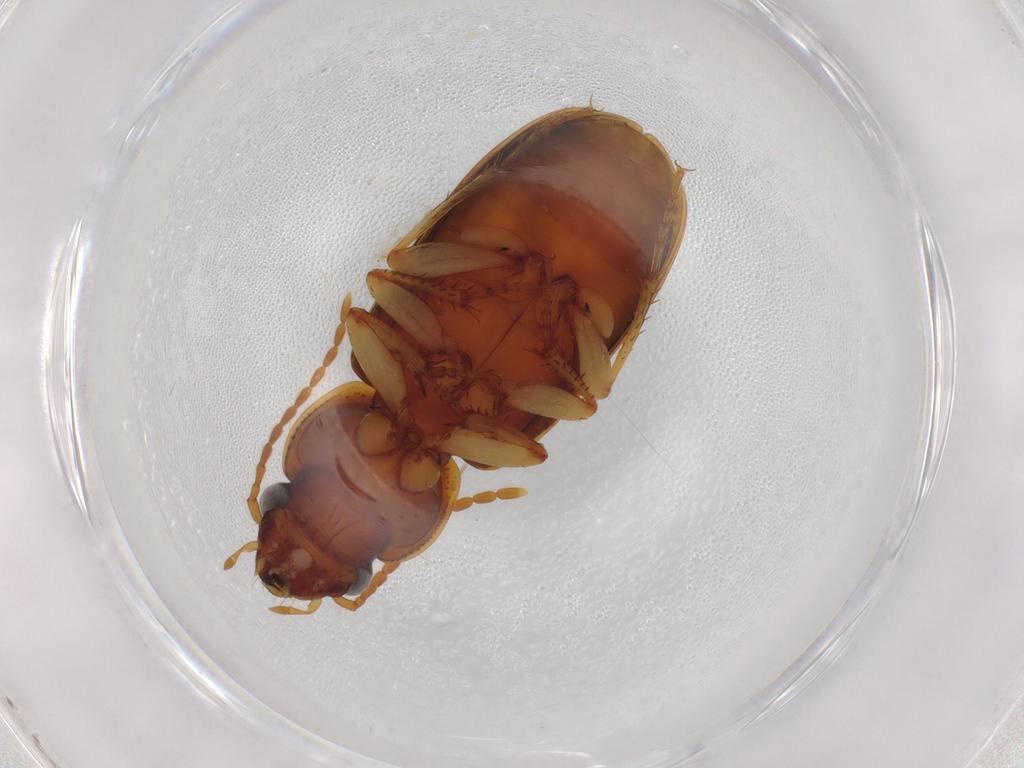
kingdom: Animalia
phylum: Arthropoda
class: Insecta
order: Coleoptera
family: Carabidae
